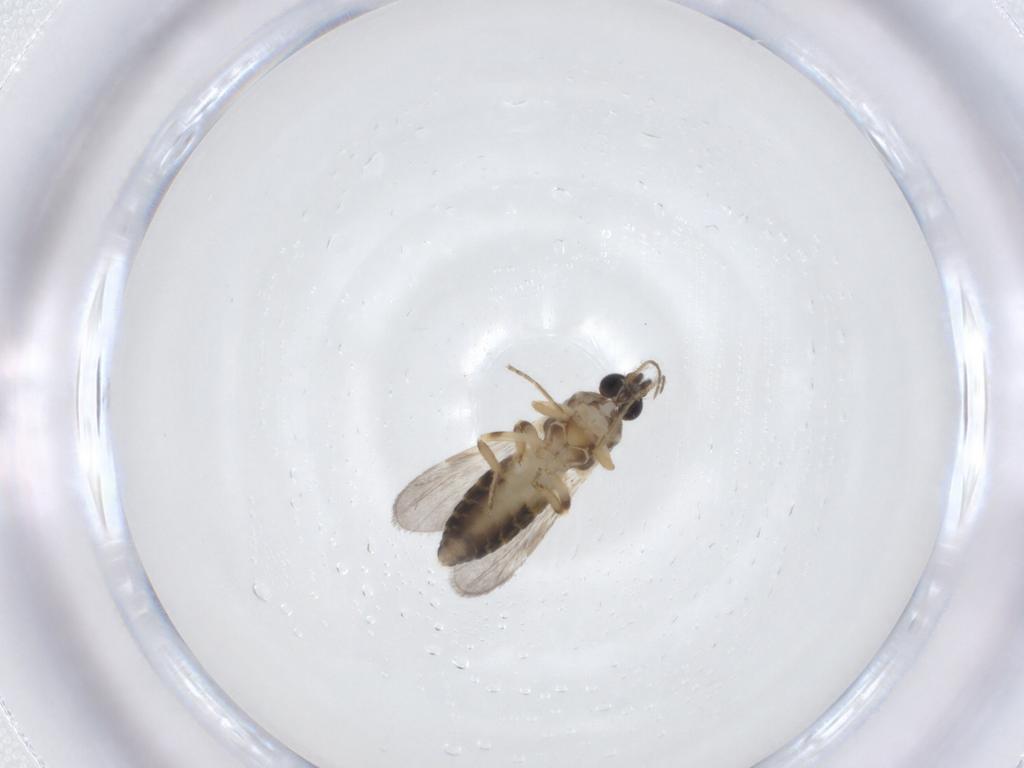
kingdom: Animalia
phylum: Arthropoda
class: Insecta
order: Diptera
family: Ceratopogonidae
